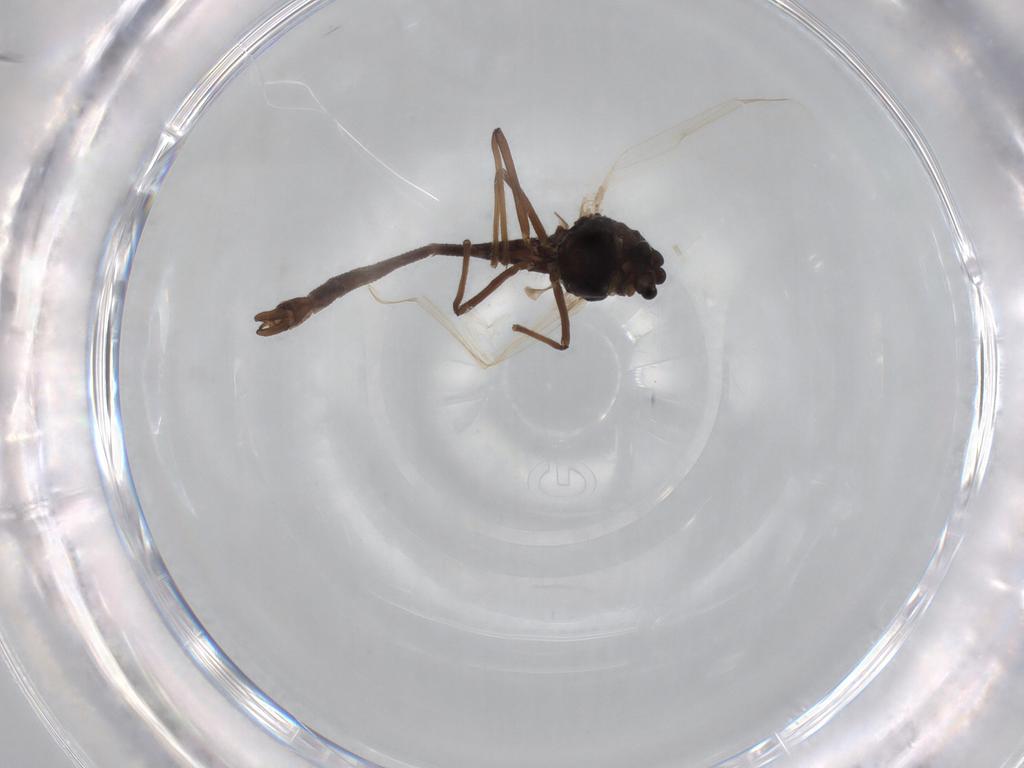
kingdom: Animalia
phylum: Arthropoda
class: Insecta
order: Diptera
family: Chironomidae
